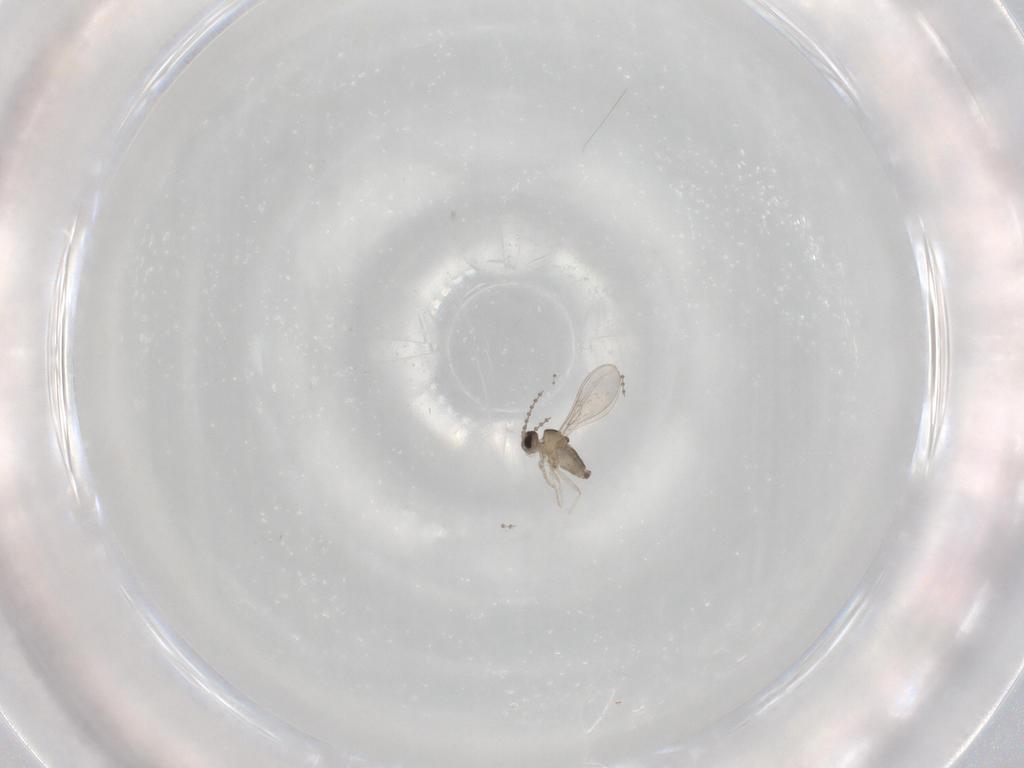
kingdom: Animalia
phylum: Arthropoda
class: Insecta
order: Diptera
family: Cecidomyiidae
